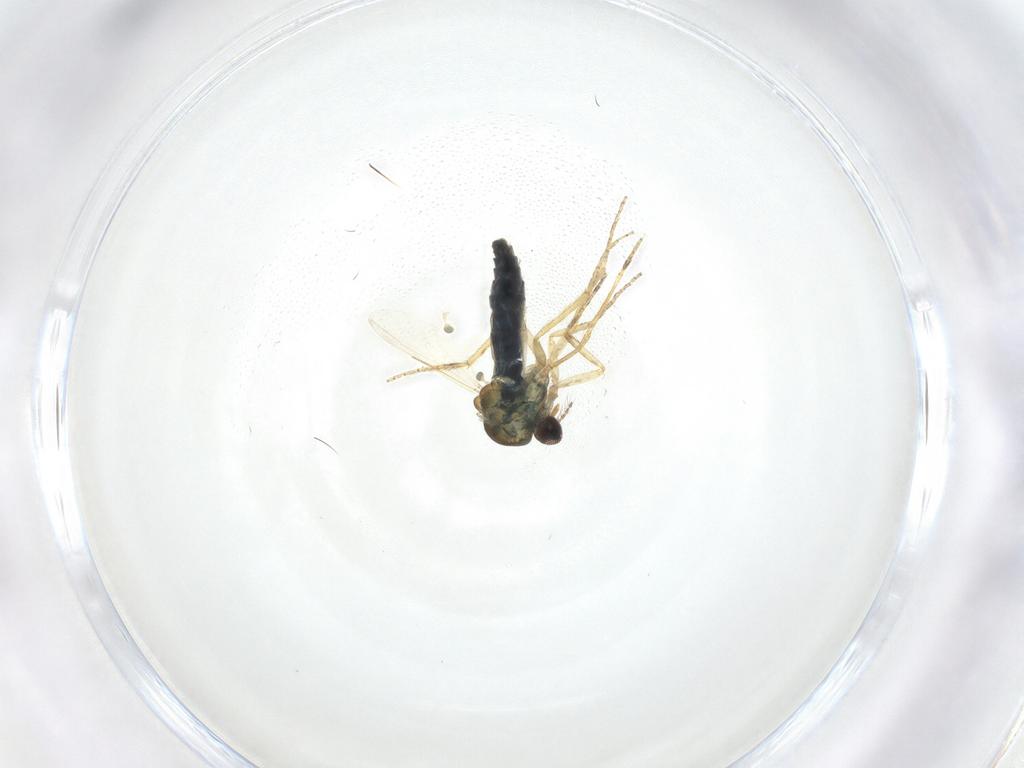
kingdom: Animalia
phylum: Arthropoda
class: Insecta
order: Diptera
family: Ceratopogonidae
